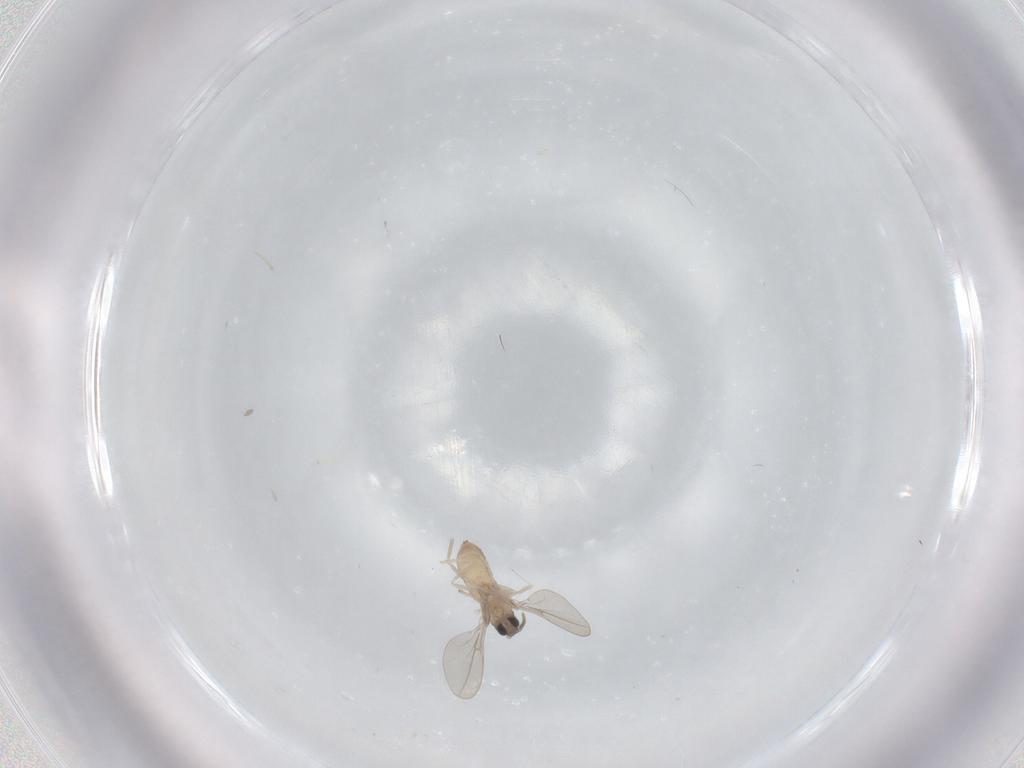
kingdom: Animalia
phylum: Arthropoda
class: Insecta
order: Diptera
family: Cecidomyiidae
